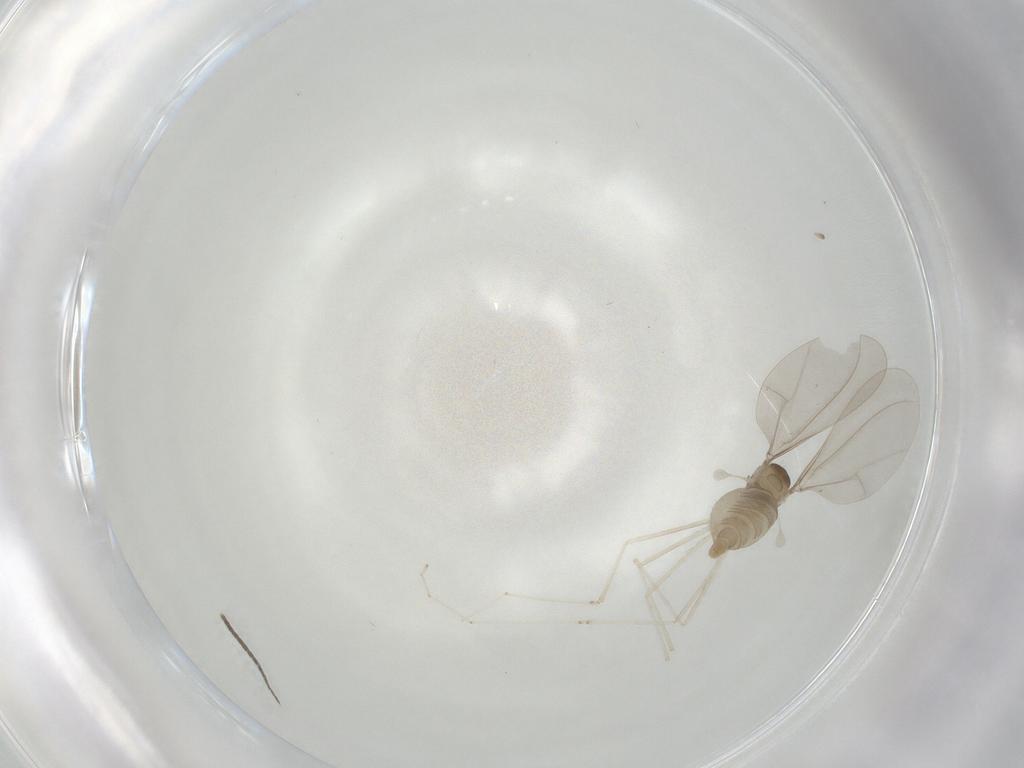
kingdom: Animalia
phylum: Arthropoda
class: Insecta
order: Diptera
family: Cecidomyiidae
